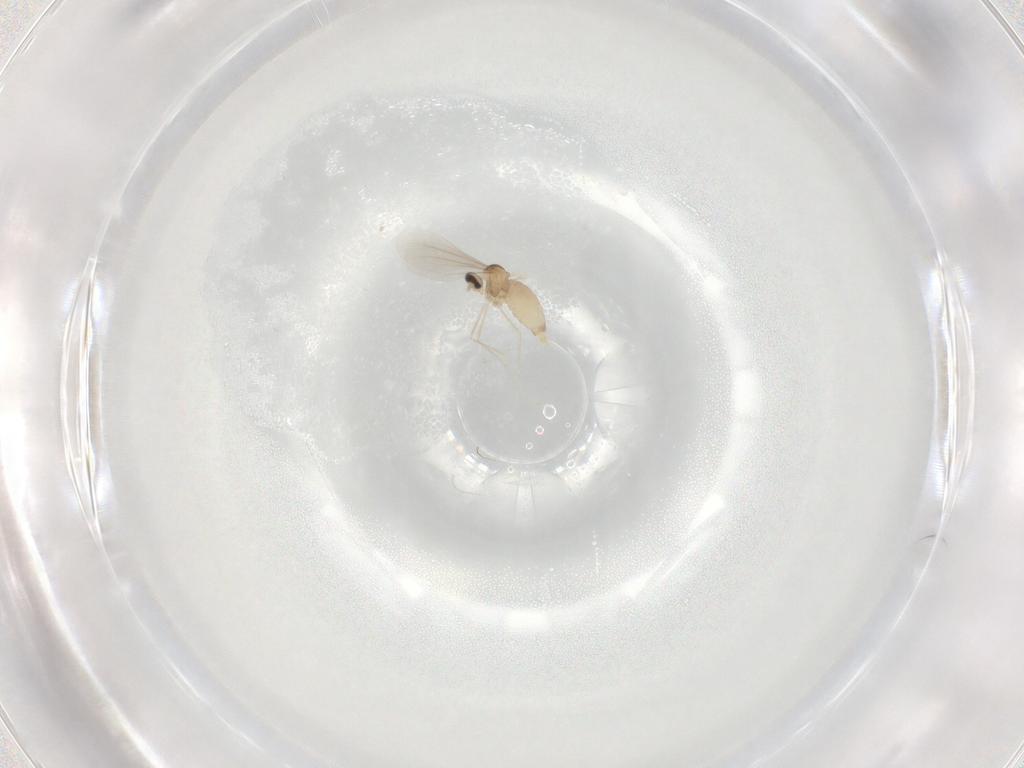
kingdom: Animalia
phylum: Arthropoda
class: Insecta
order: Diptera
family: Cecidomyiidae
